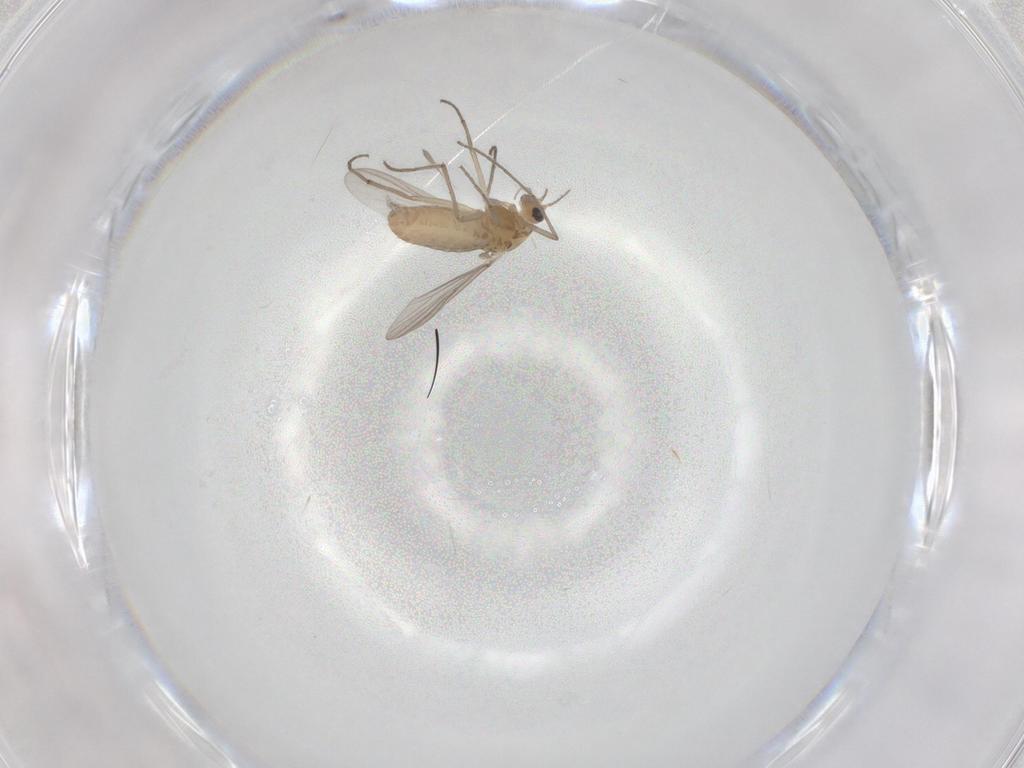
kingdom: Animalia
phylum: Arthropoda
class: Insecta
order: Diptera
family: Chironomidae
